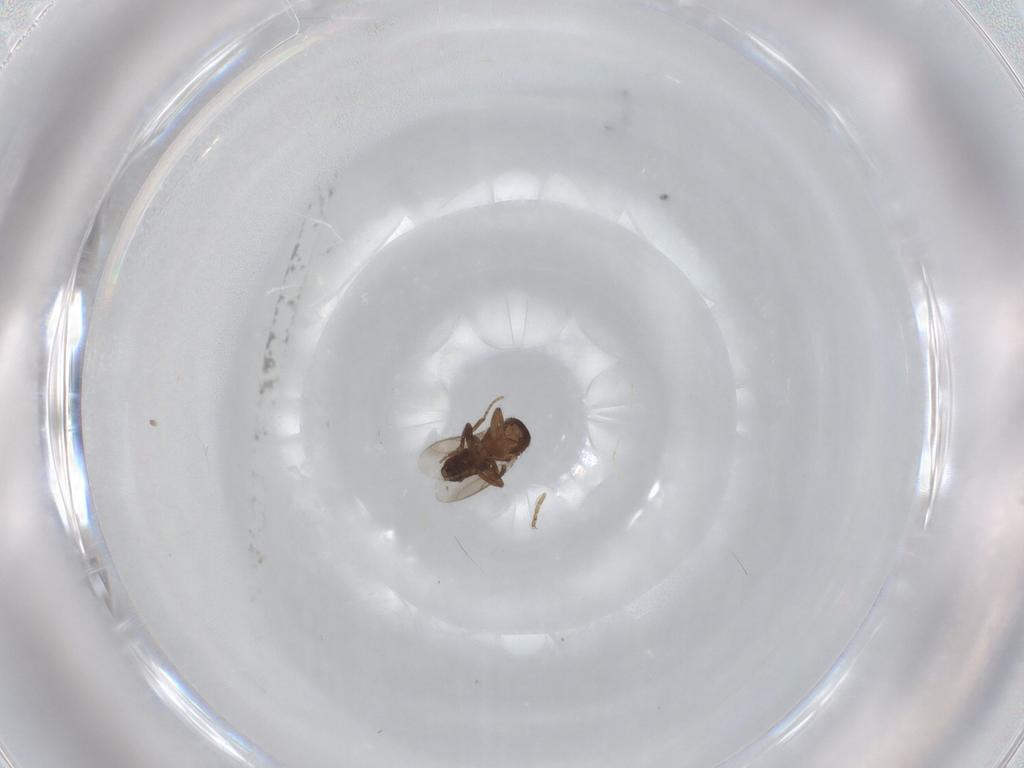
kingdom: Animalia
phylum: Arthropoda
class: Insecta
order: Diptera
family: Cecidomyiidae
